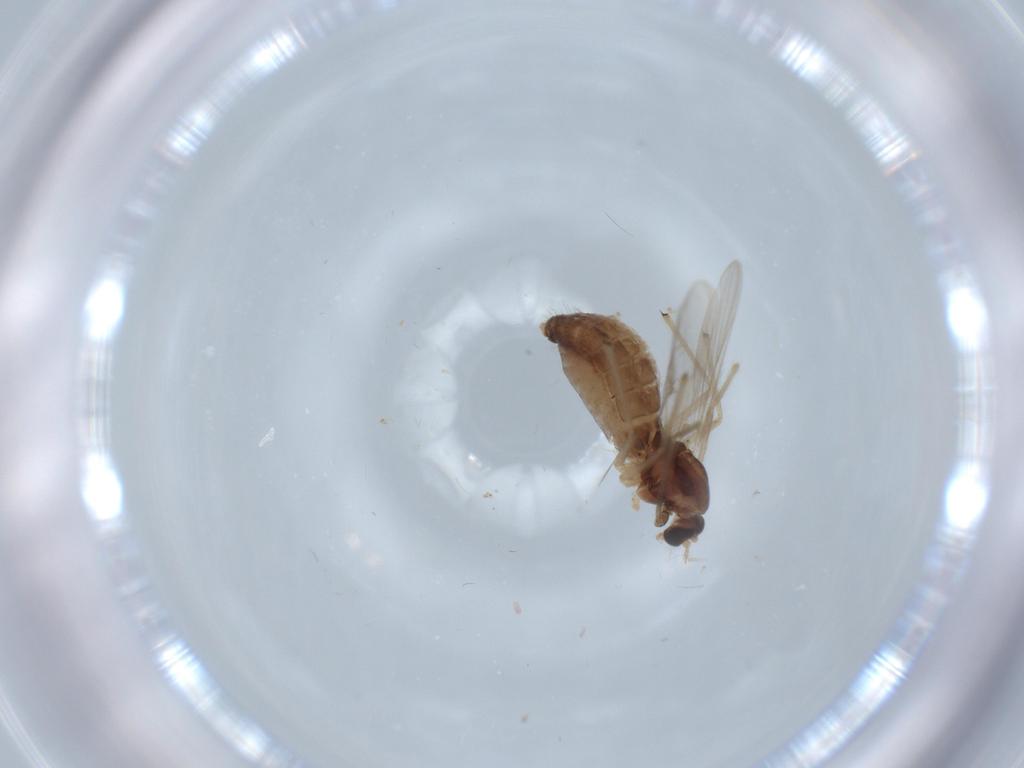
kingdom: Animalia
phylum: Arthropoda
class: Insecta
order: Diptera
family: Chironomidae
